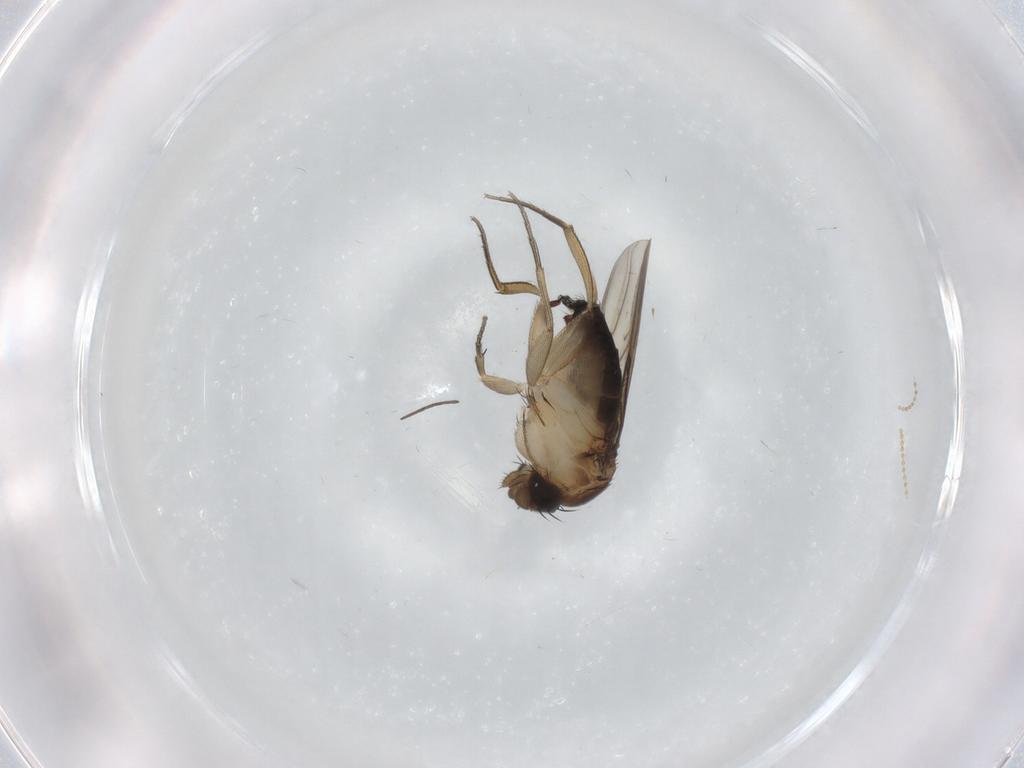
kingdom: Animalia
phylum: Arthropoda
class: Insecta
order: Diptera
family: Phoridae
